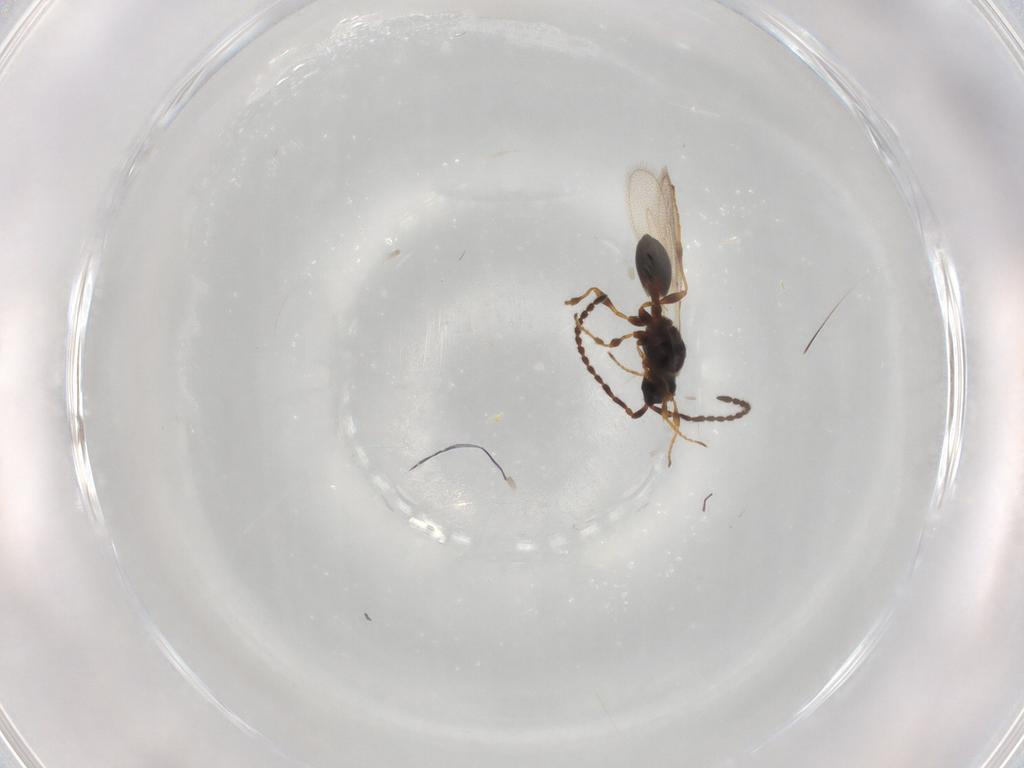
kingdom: Animalia
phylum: Arthropoda
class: Insecta
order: Hymenoptera
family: Diapriidae
